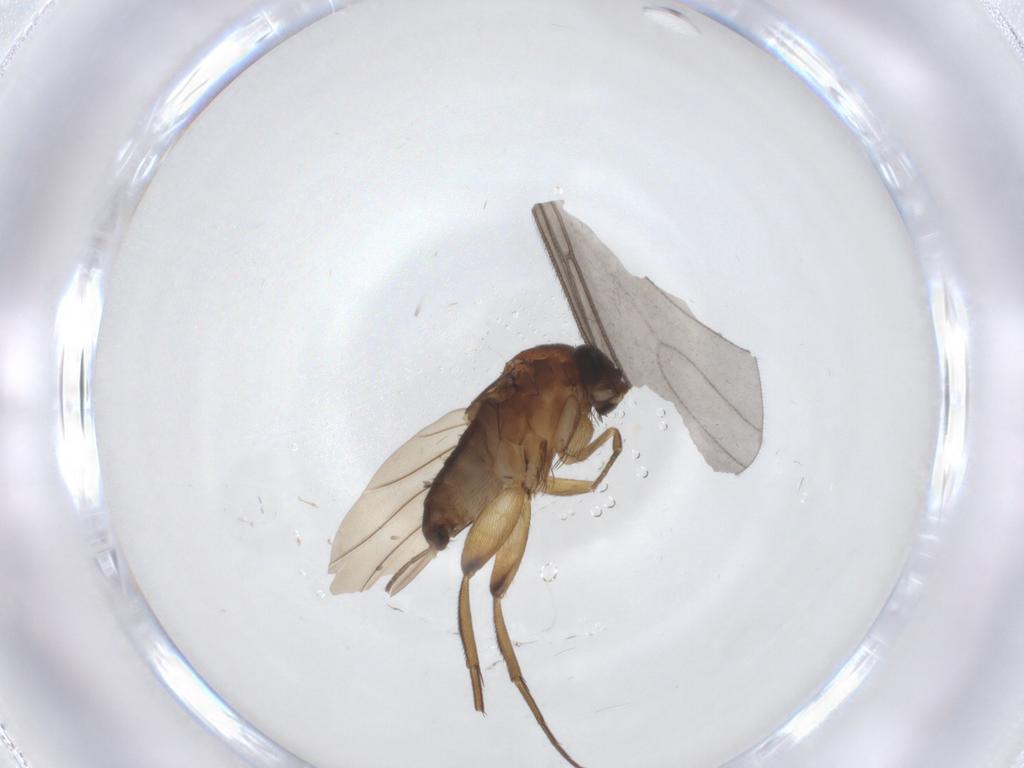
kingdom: Animalia
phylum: Arthropoda
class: Insecta
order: Diptera
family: Phoridae
